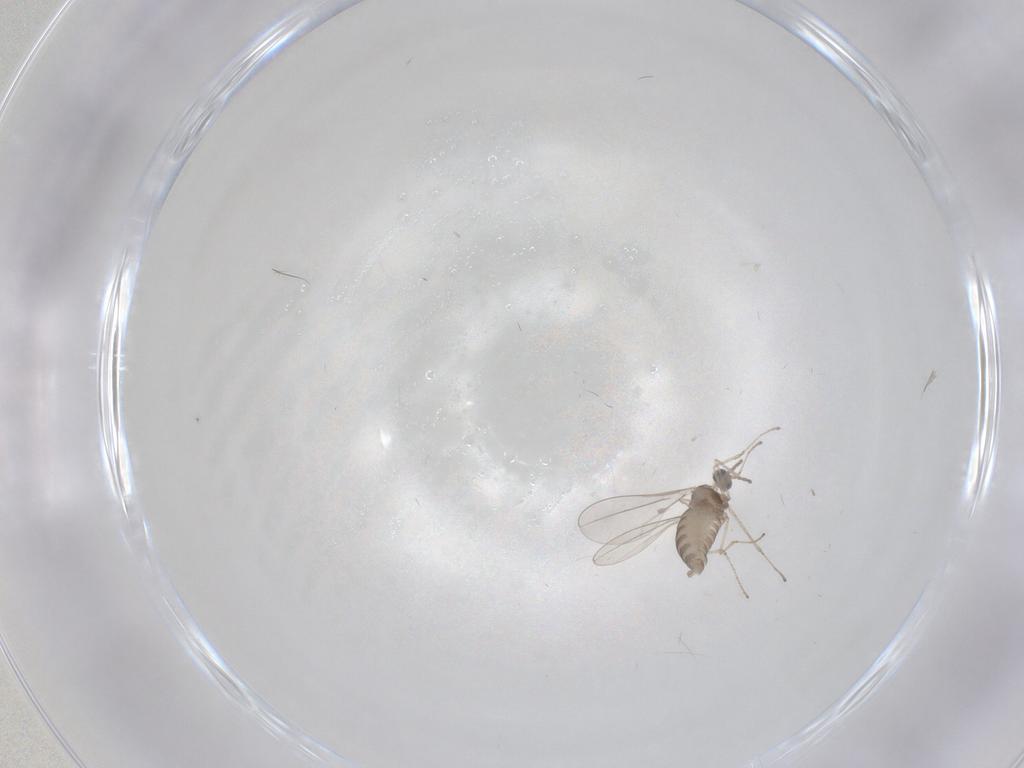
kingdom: Animalia
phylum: Arthropoda
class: Insecta
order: Diptera
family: Cecidomyiidae
